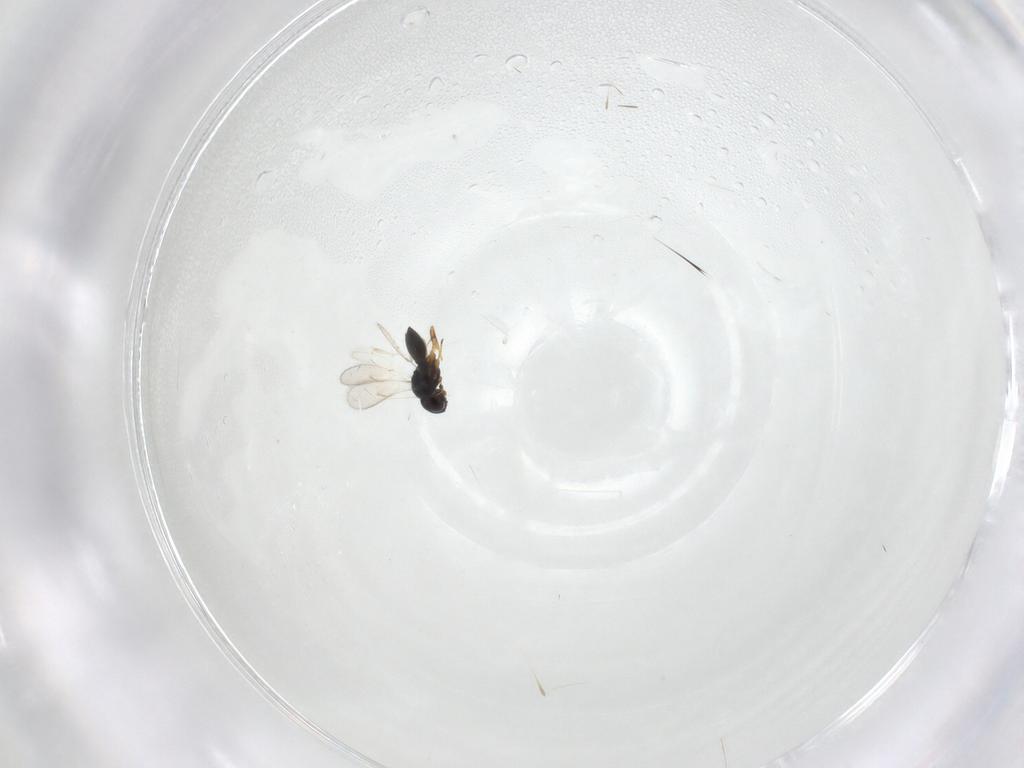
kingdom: Animalia
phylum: Arthropoda
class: Insecta
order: Hymenoptera
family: Scelionidae
